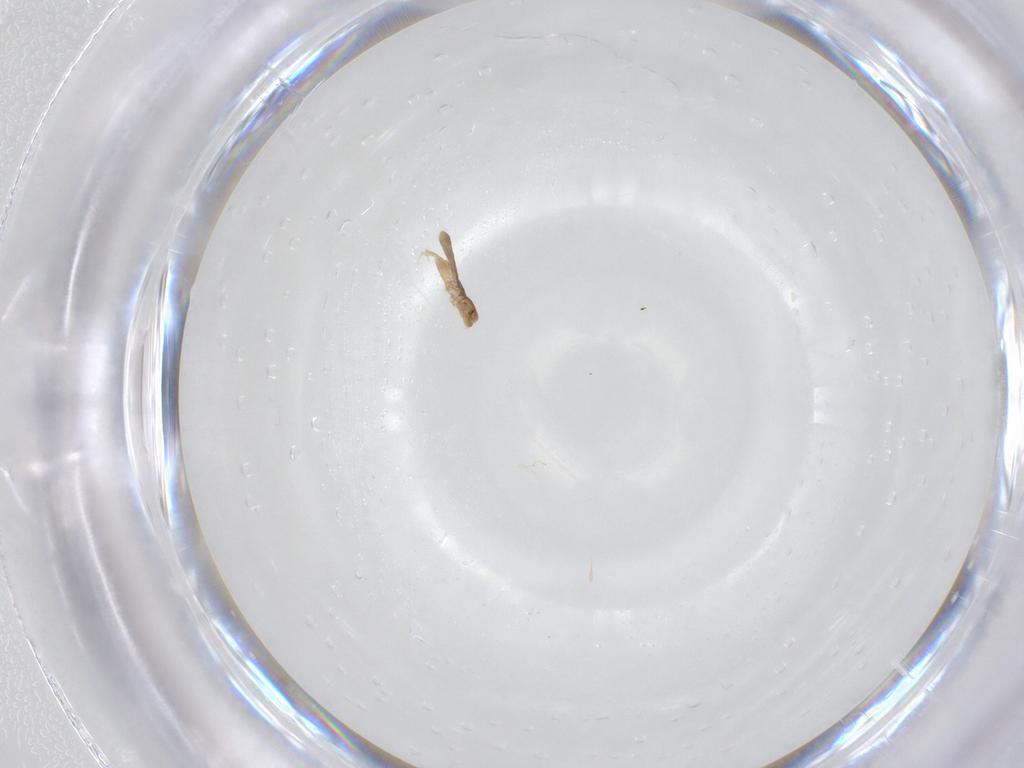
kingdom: Animalia
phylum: Arthropoda
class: Insecta
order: Psocodea
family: Liposcelididae
